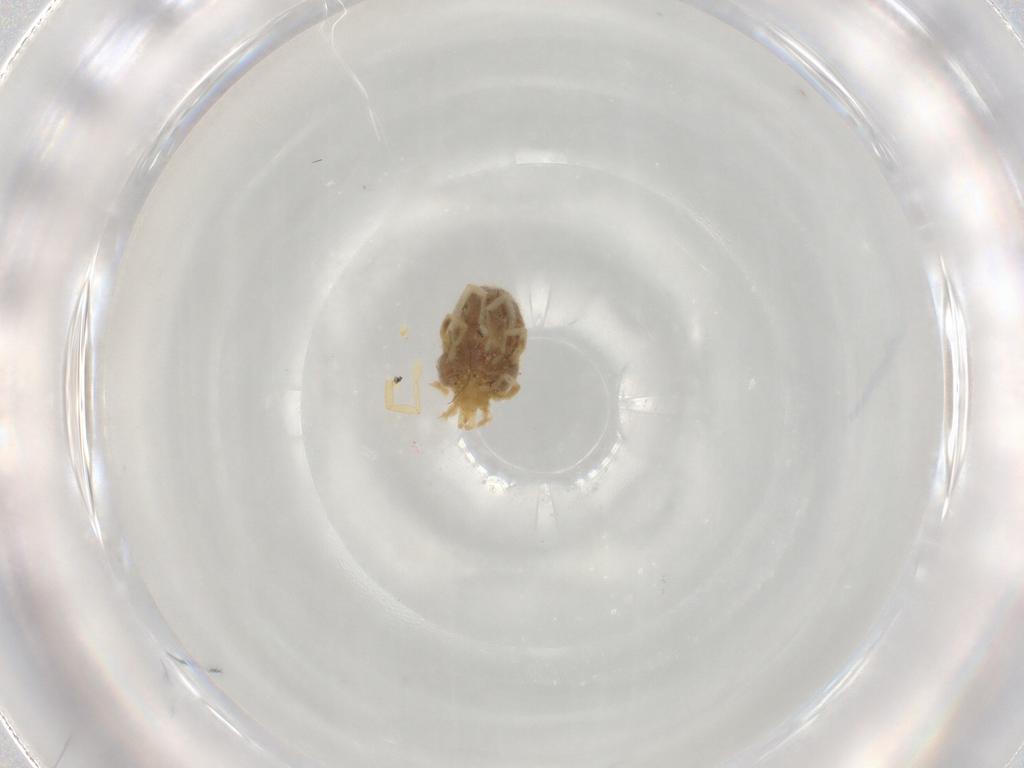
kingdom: Animalia
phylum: Arthropoda
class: Arachnida
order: Trombidiformes
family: Erythraeidae
